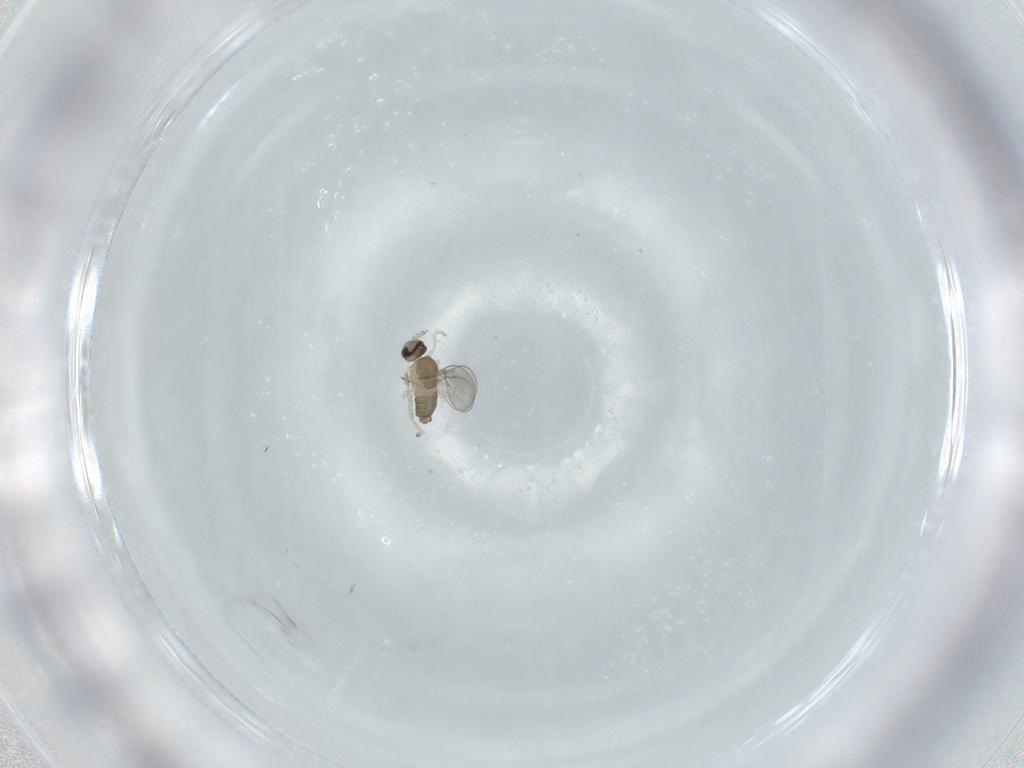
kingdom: Animalia
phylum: Arthropoda
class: Insecta
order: Diptera
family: Cecidomyiidae
